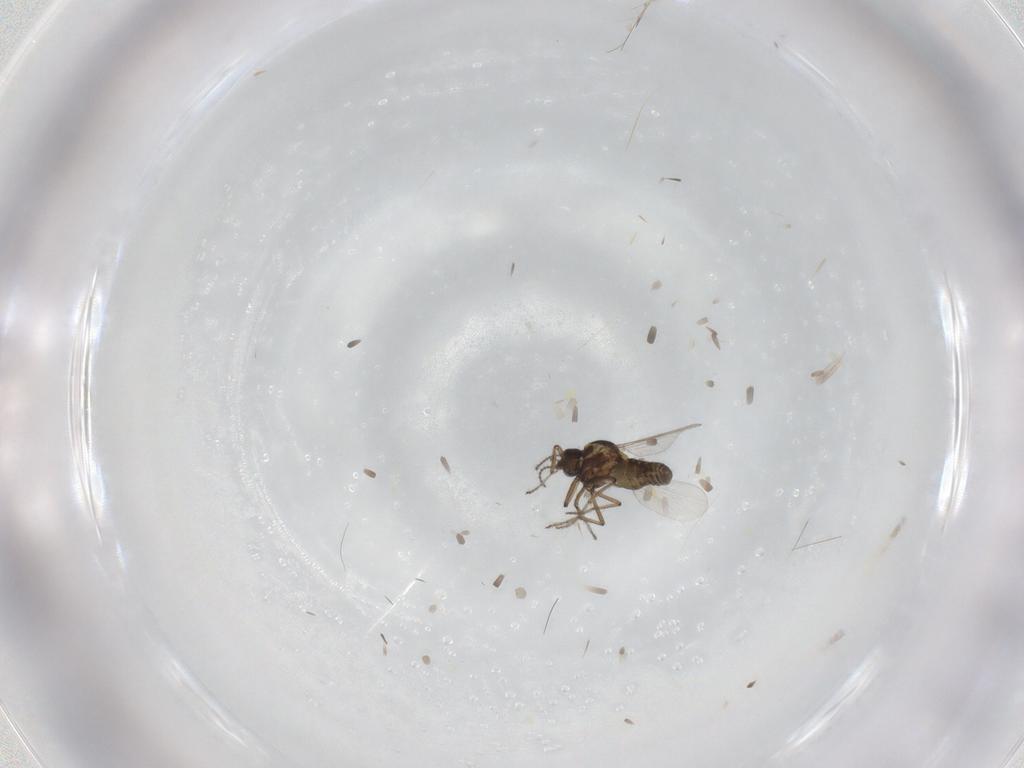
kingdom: Animalia
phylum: Arthropoda
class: Insecta
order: Diptera
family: Ceratopogonidae
